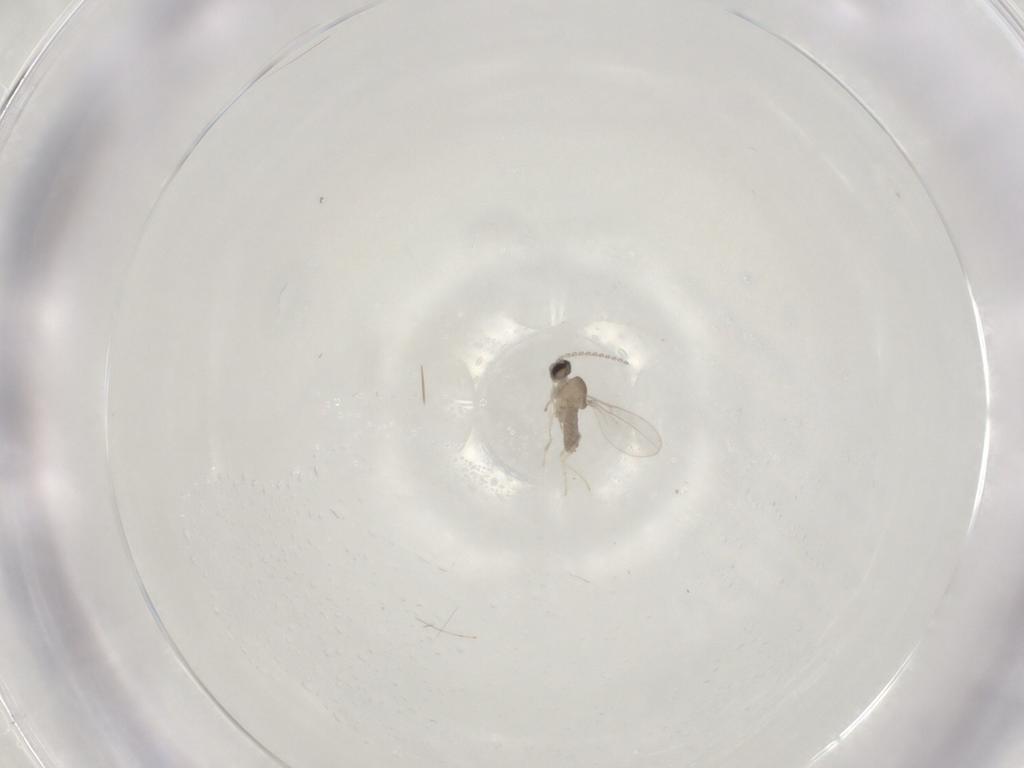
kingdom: Animalia
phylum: Arthropoda
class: Insecta
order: Diptera
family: Cecidomyiidae
